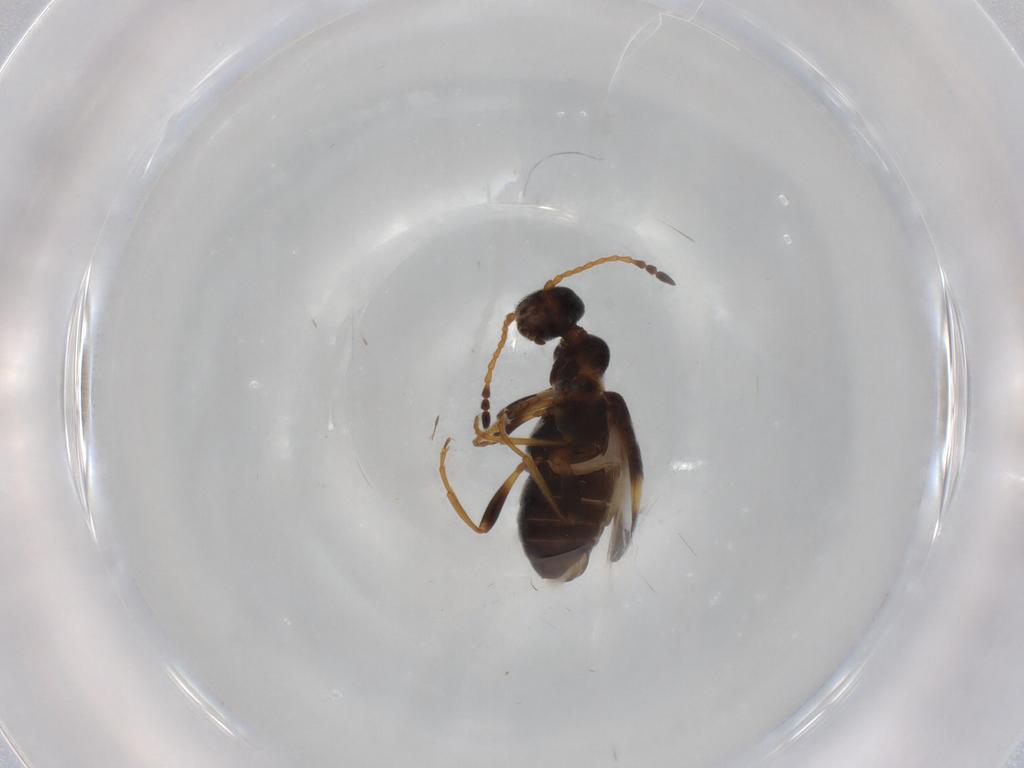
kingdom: Animalia
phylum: Arthropoda
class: Insecta
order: Coleoptera
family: Anthicidae
